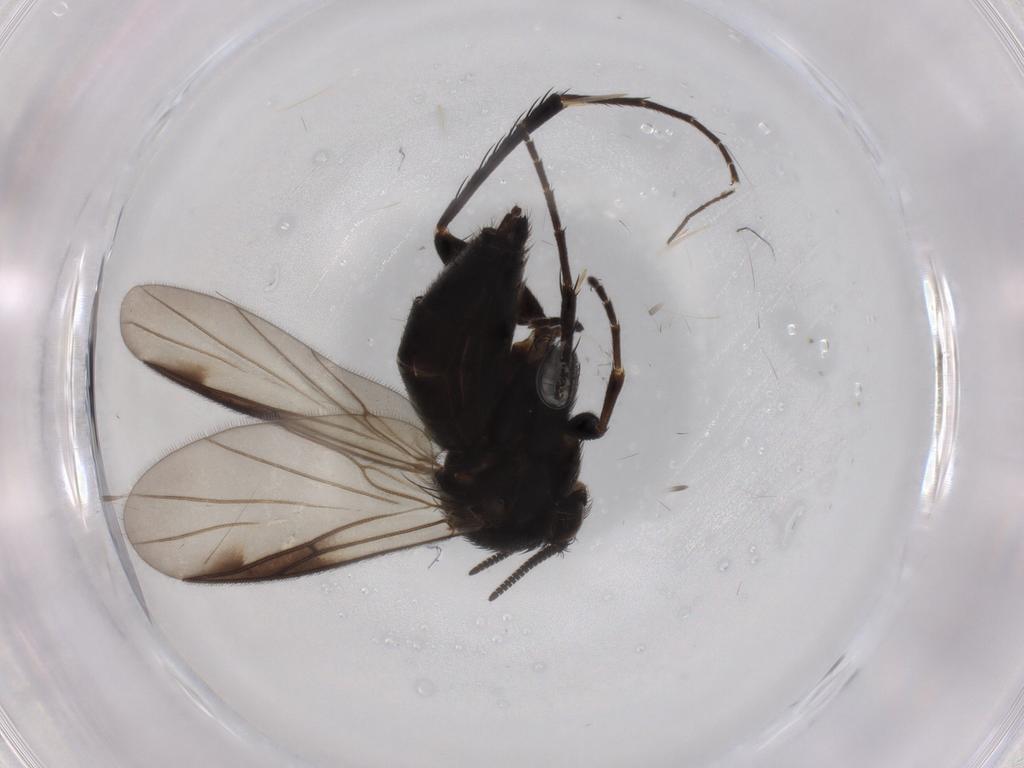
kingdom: Animalia
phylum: Arthropoda
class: Insecta
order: Diptera
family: Mycetophilidae
